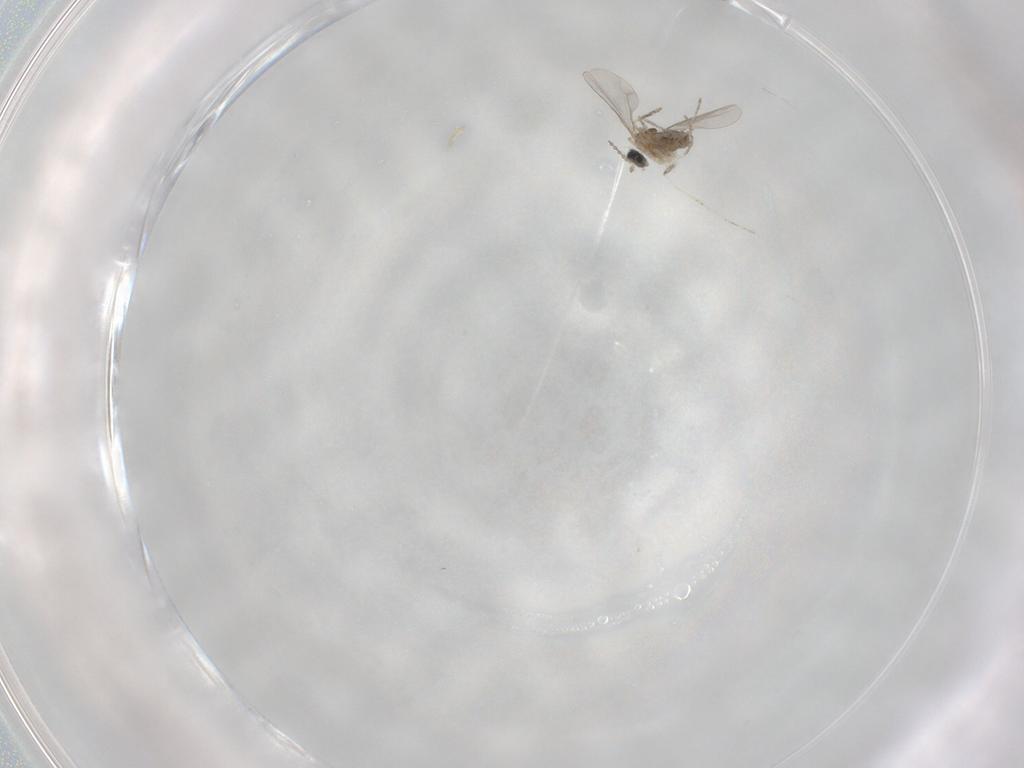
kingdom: Animalia
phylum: Arthropoda
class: Insecta
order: Diptera
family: Cecidomyiidae
